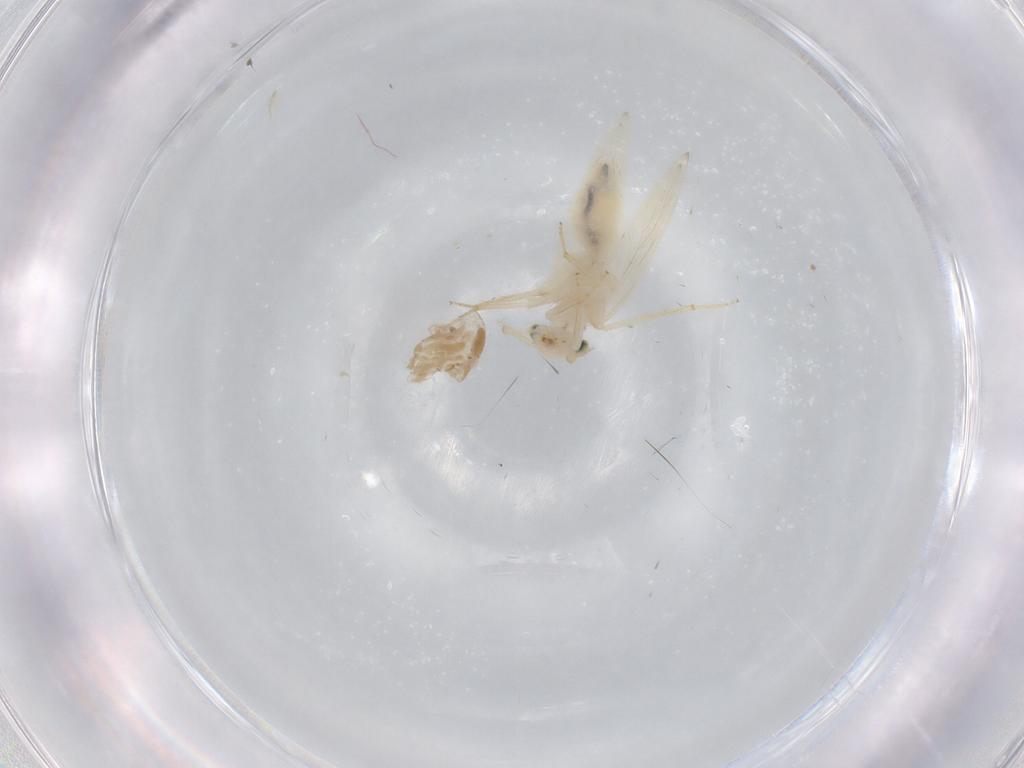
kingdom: Animalia
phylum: Arthropoda
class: Insecta
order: Psocodea
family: Lepidopsocidae
